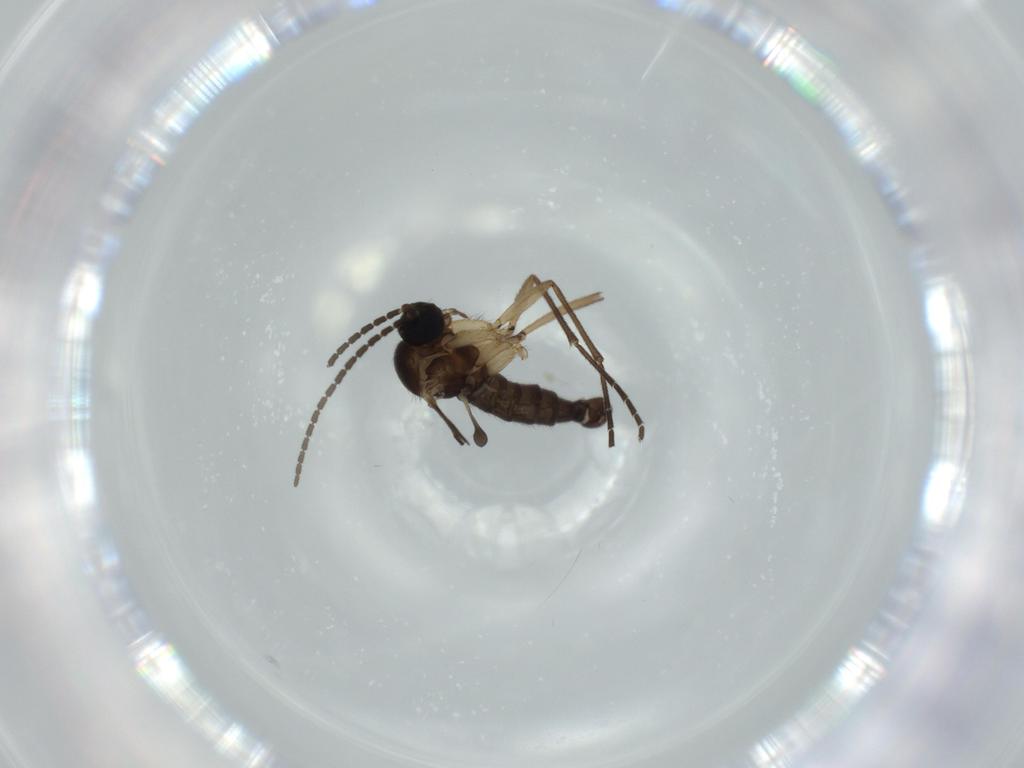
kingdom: Animalia
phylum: Arthropoda
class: Insecta
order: Diptera
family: Sciaridae
